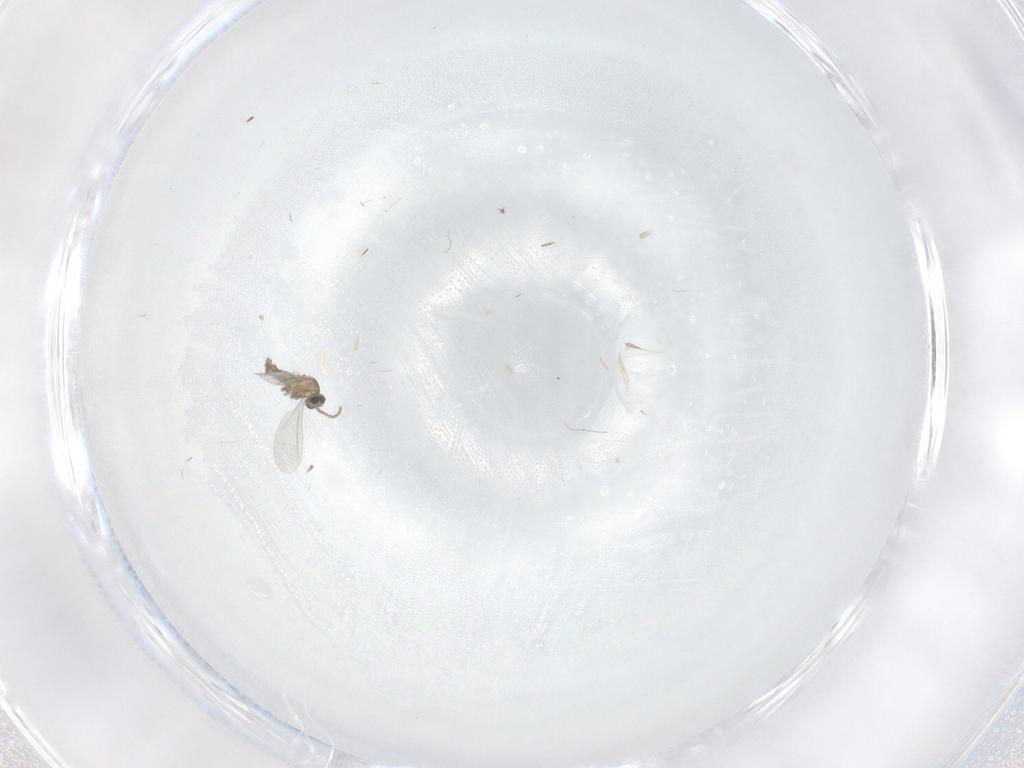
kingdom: Animalia
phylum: Arthropoda
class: Insecta
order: Diptera
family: Cecidomyiidae
